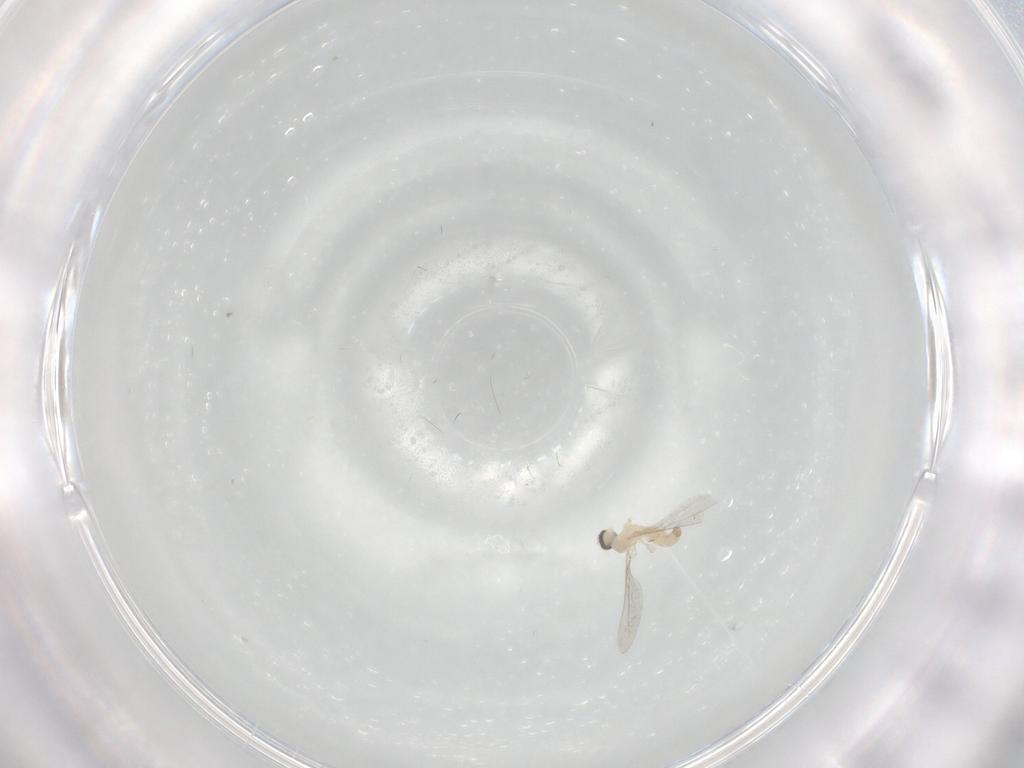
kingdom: Animalia
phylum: Arthropoda
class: Insecta
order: Diptera
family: Cecidomyiidae
